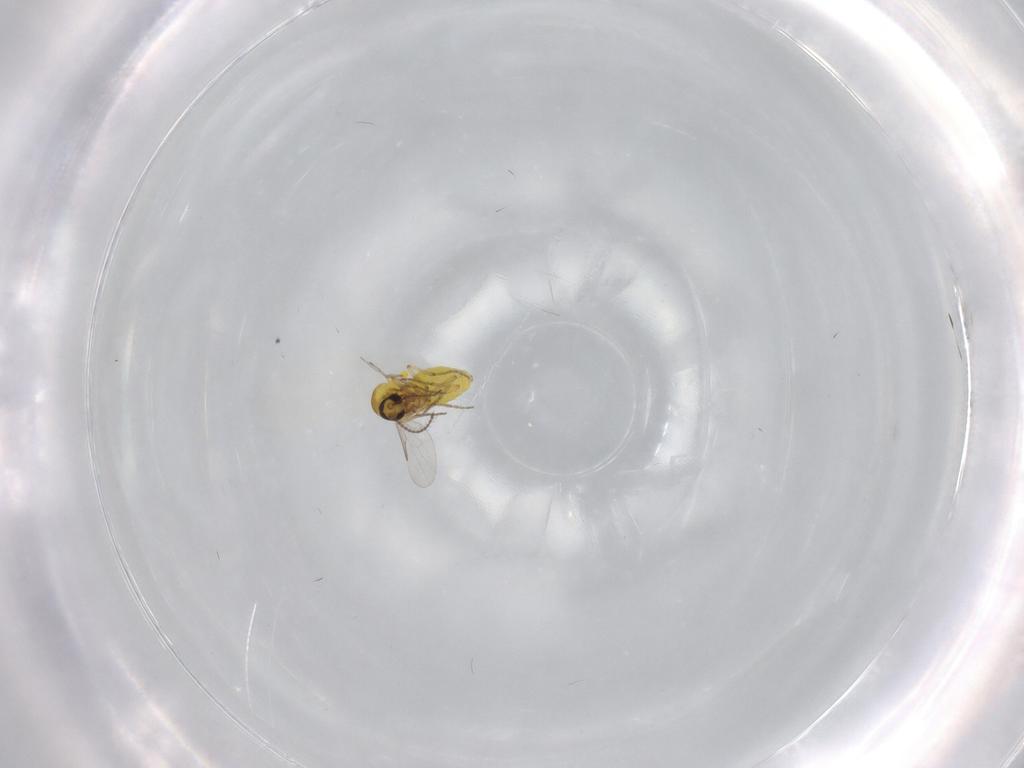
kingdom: Animalia
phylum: Arthropoda
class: Insecta
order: Diptera
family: Ceratopogonidae
